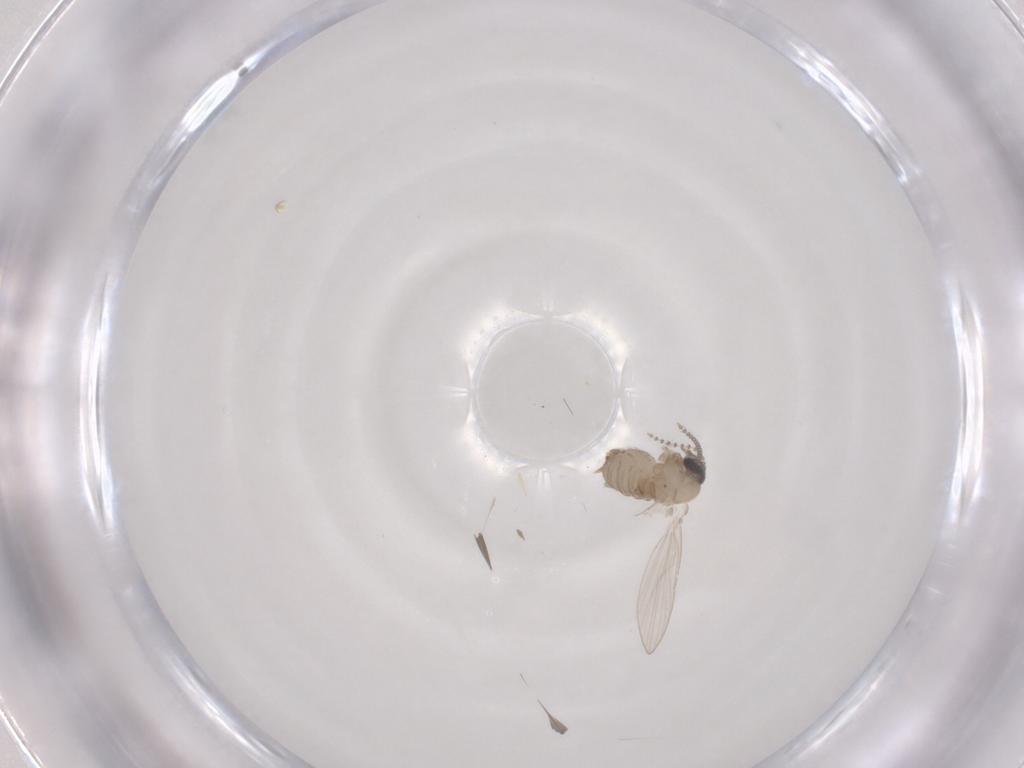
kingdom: Animalia
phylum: Arthropoda
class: Insecta
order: Diptera
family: Psychodidae
